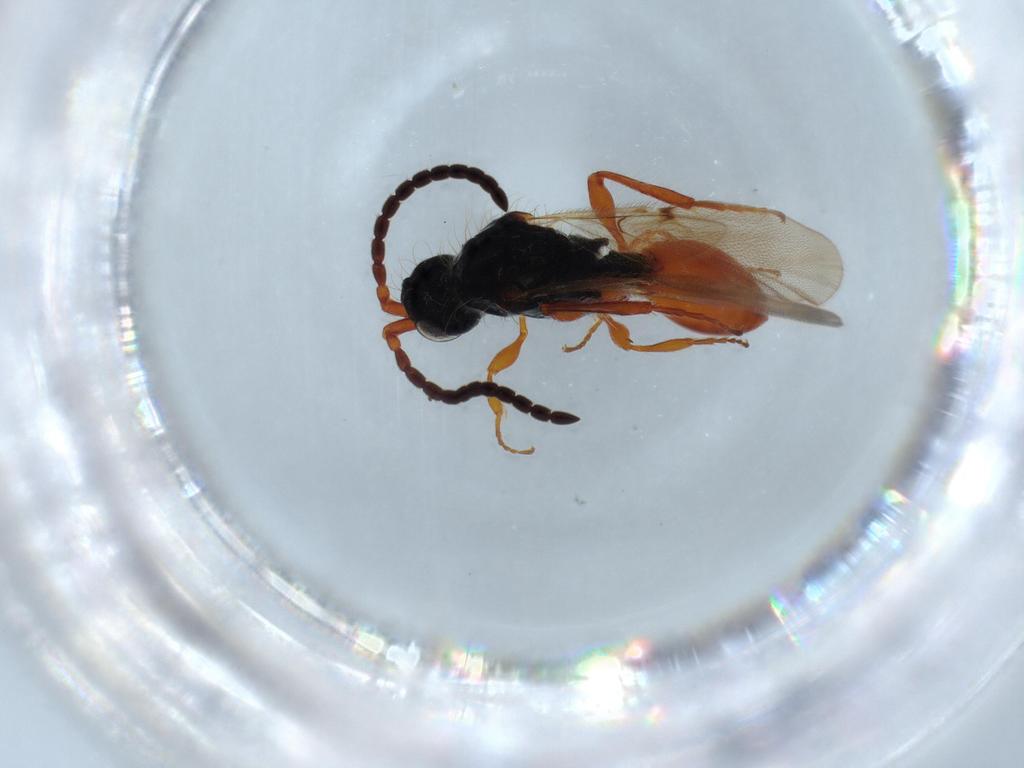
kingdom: Animalia
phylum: Arthropoda
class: Insecta
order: Hymenoptera
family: Diapriidae
